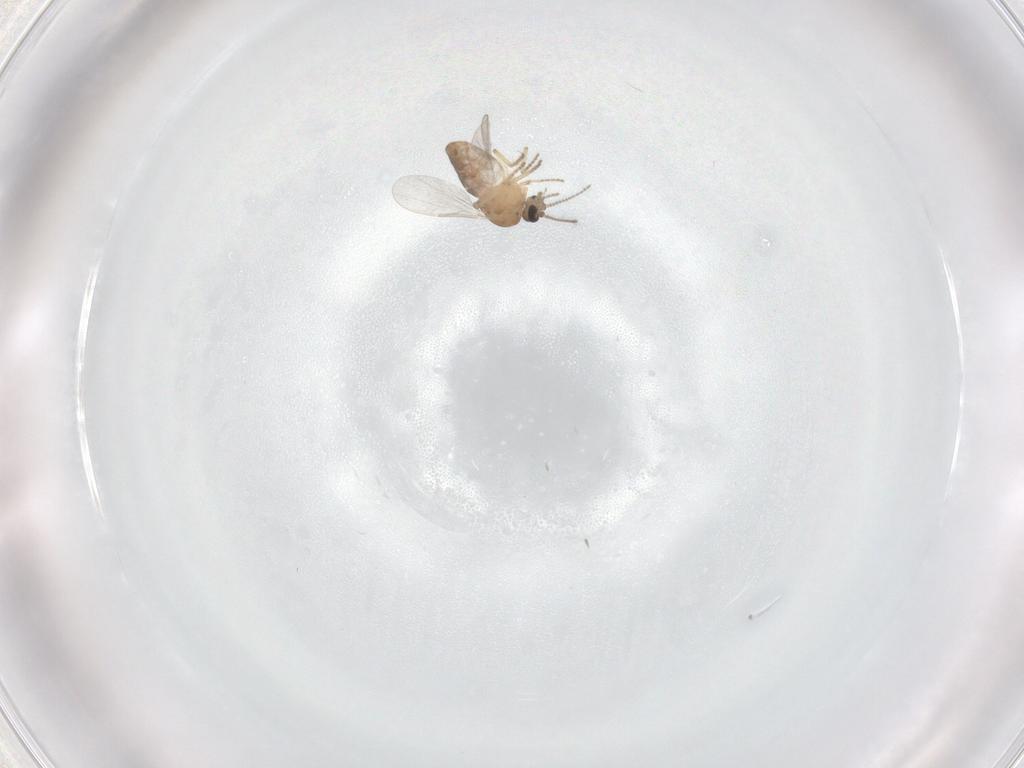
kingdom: Animalia
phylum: Arthropoda
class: Insecta
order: Diptera
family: Ceratopogonidae
